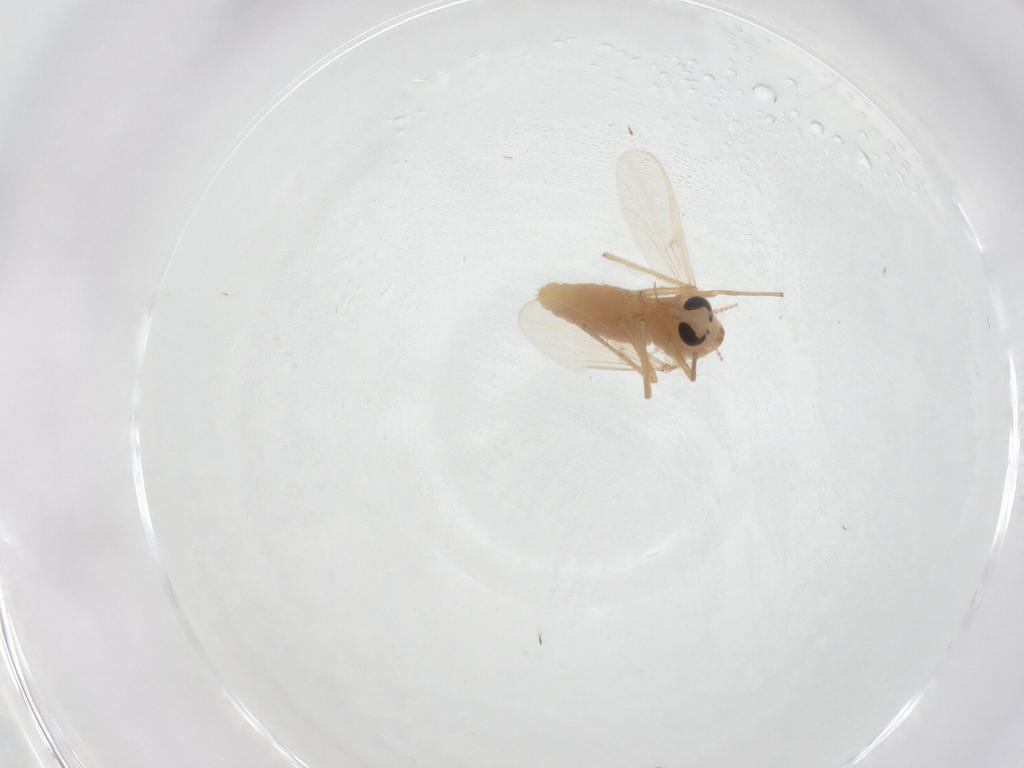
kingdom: Animalia
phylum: Arthropoda
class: Insecta
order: Diptera
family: Chironomidae
